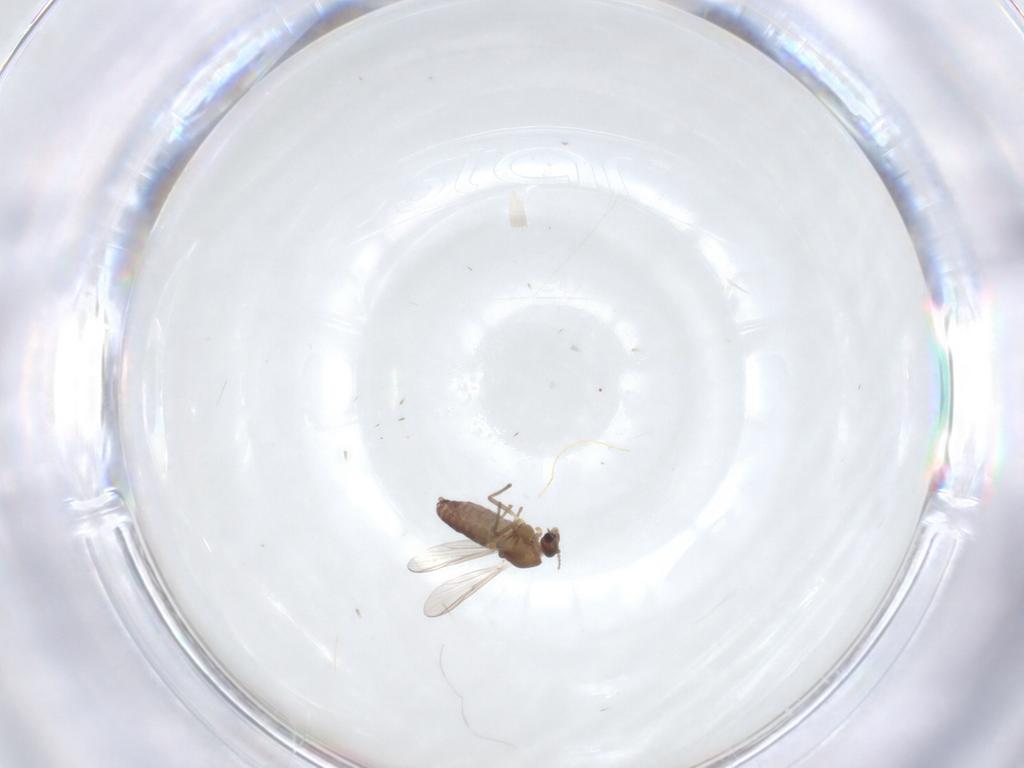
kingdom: Animalia
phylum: Arthropoda
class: Insecta
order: Diptera
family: Chironomidae
